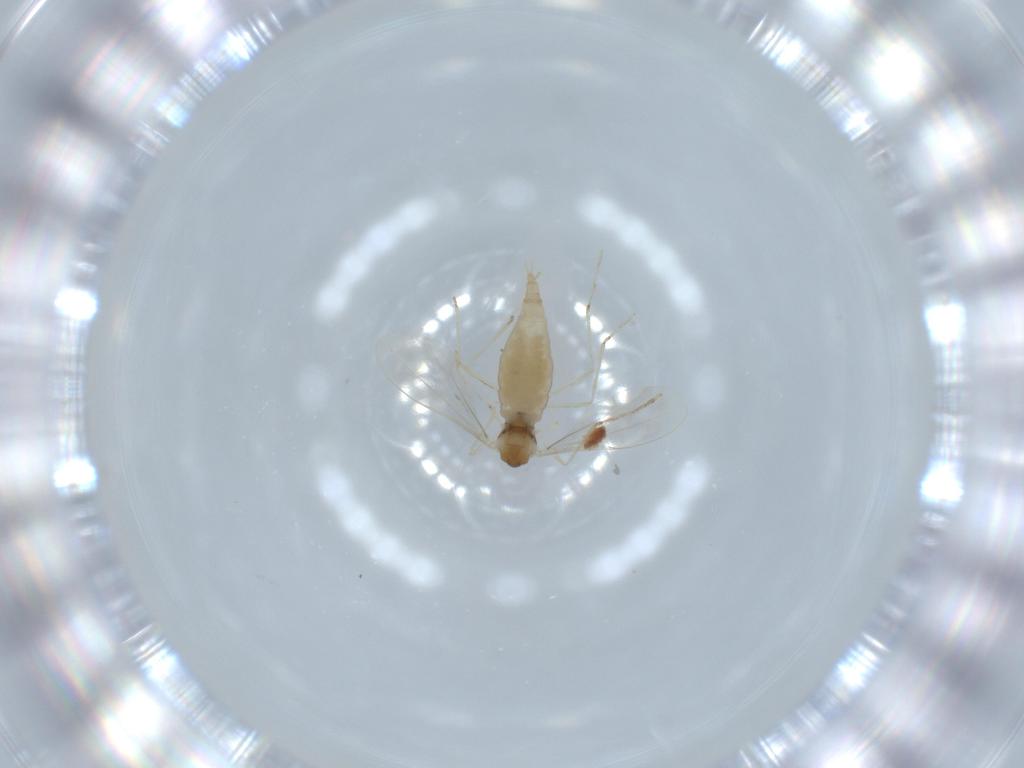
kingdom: Animalia
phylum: Arthropoda
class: Insecta
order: Diptera
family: Cecidomyiidae
